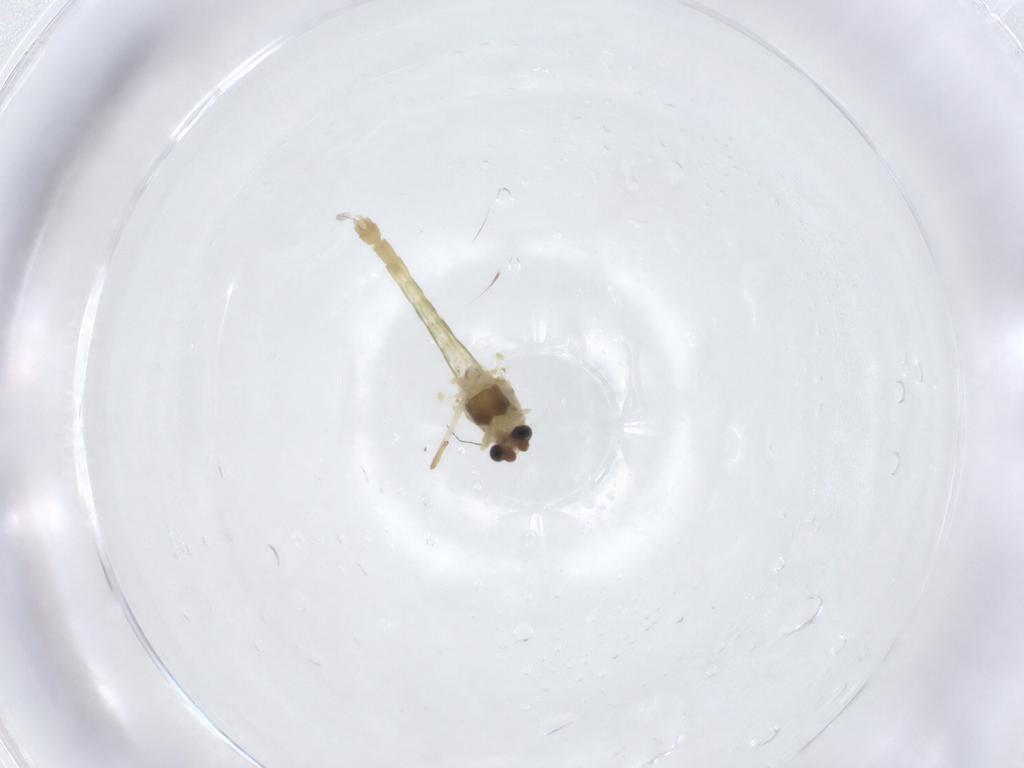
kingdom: Animalia
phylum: Arthropoda
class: Insecta
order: Diptera
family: Chironomidae
